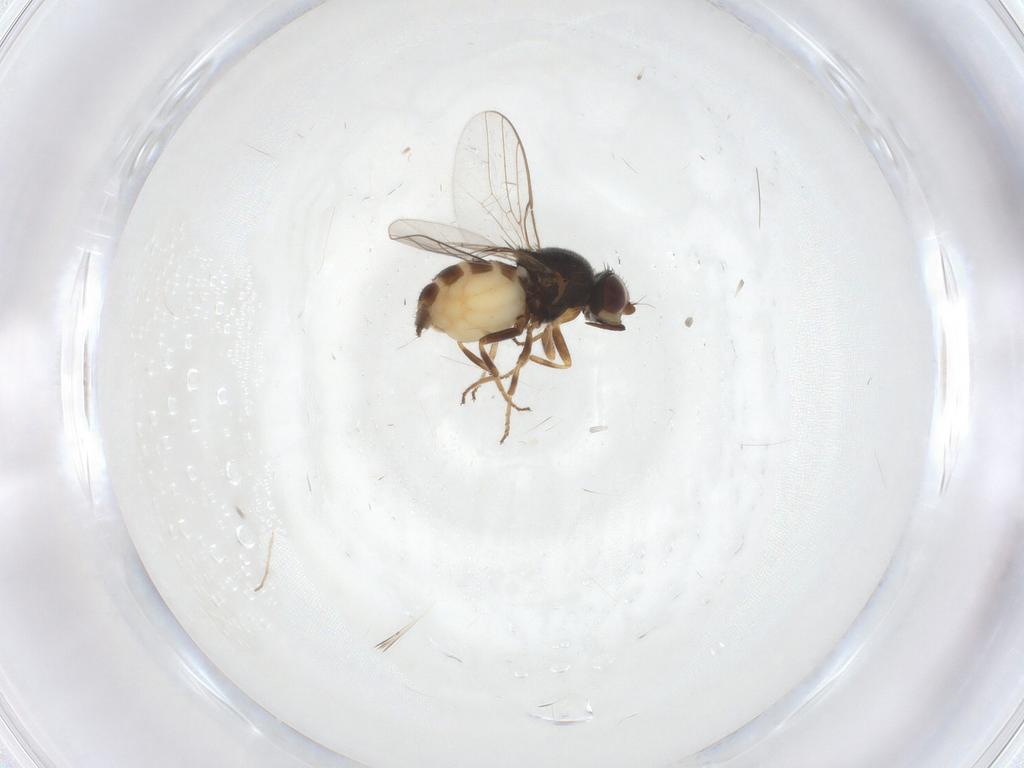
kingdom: Animalia
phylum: Arthropoda
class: Insecta
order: Diptera
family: Chloropidae
